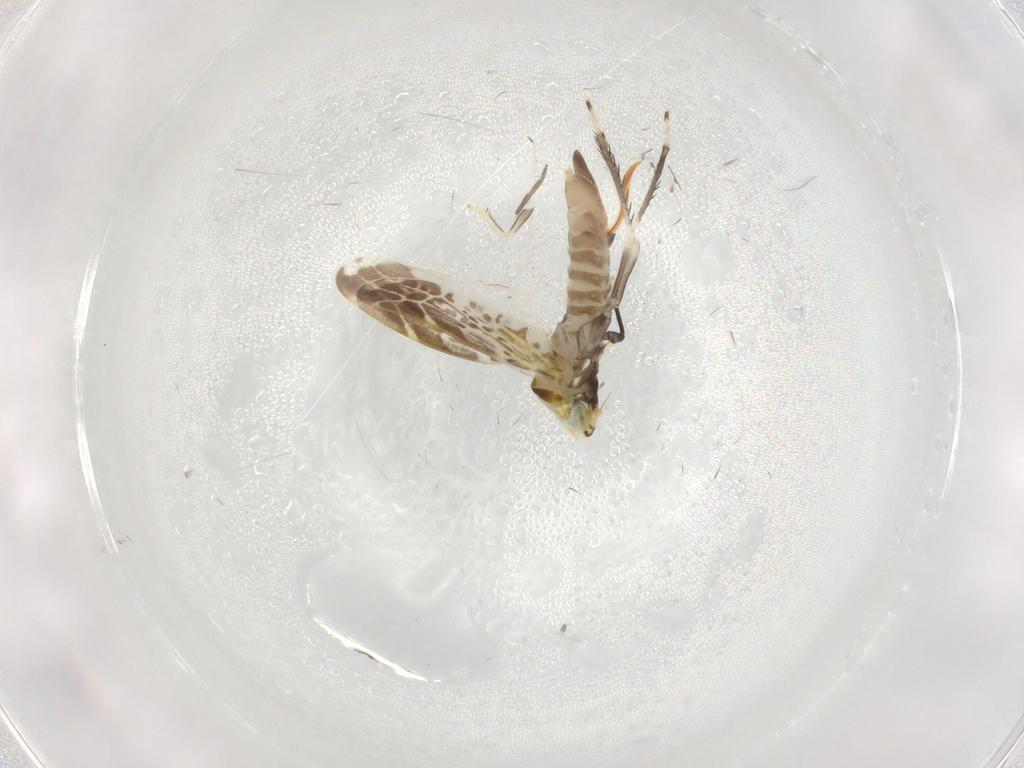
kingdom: Animalia
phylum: Arthropoda
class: Insecta
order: Hemiptera
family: Cicadellidae
